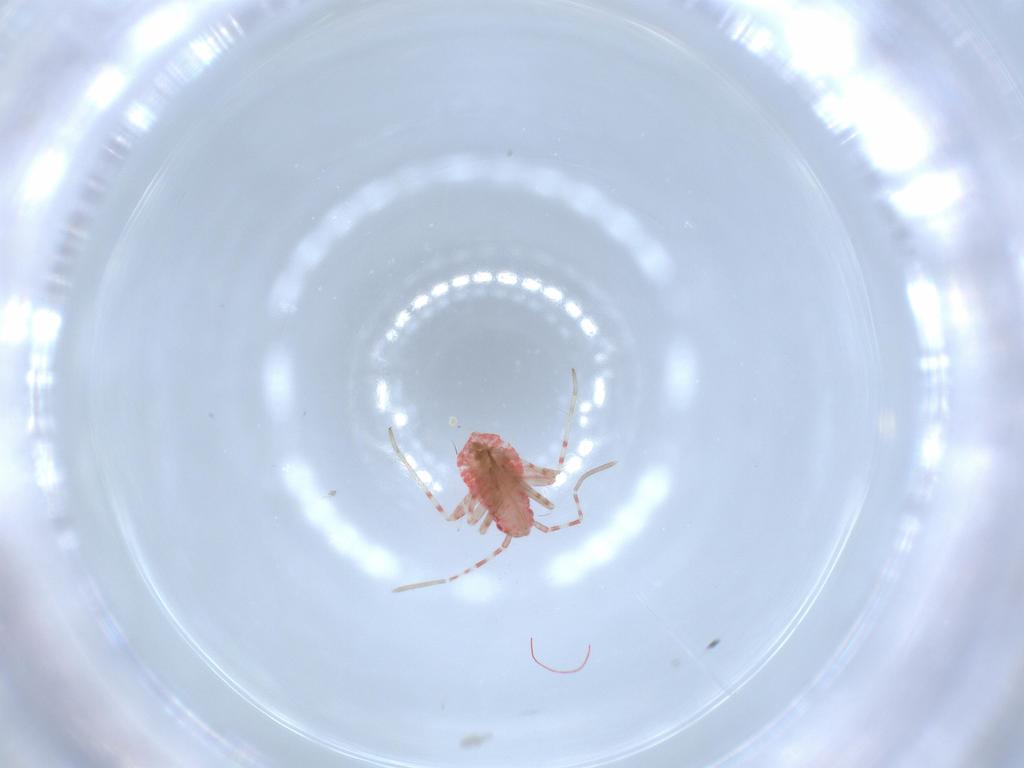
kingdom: Animalia
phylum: Arthropoda
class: Insecta
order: Hemiptera
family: Miridae
